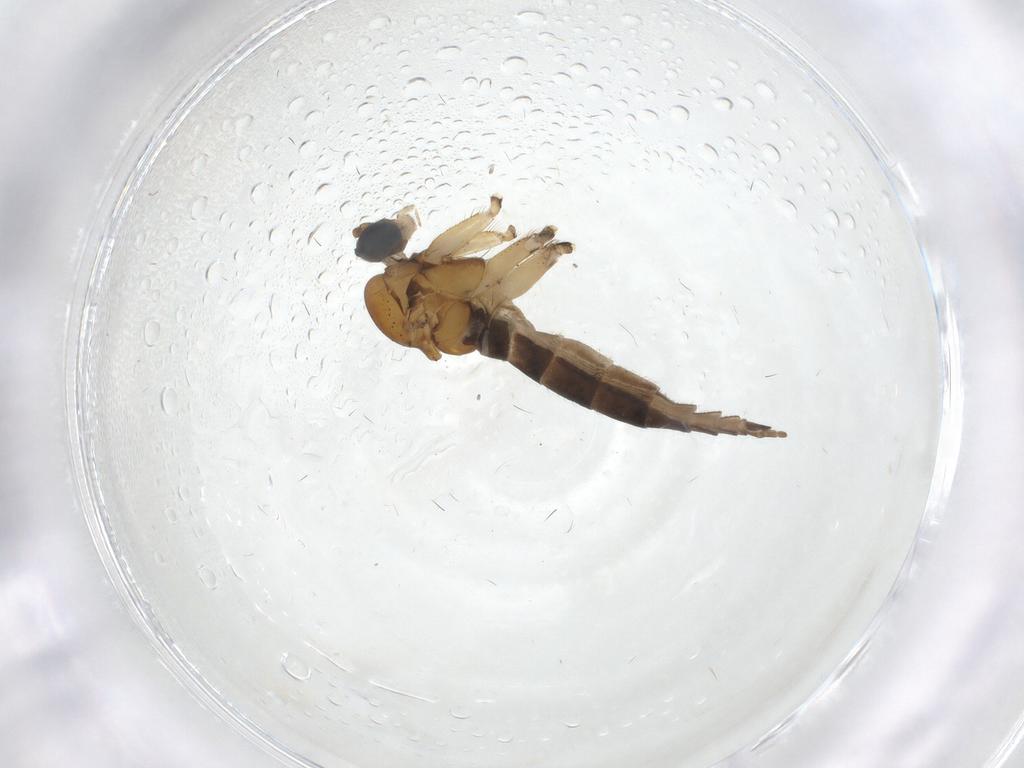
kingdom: Animalia
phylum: Arthropoda
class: Insecta
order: Diptera
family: Sciaridae
